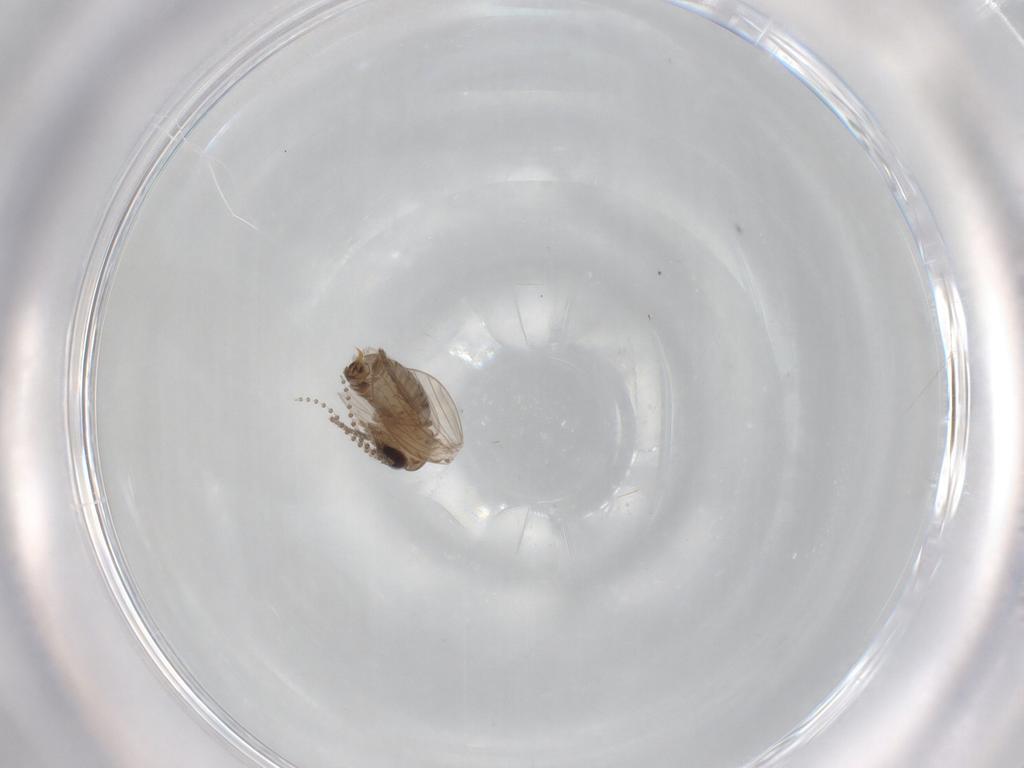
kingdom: Animalia
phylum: Arthropoda
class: Insecta
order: Diptera
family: Psychodidae
